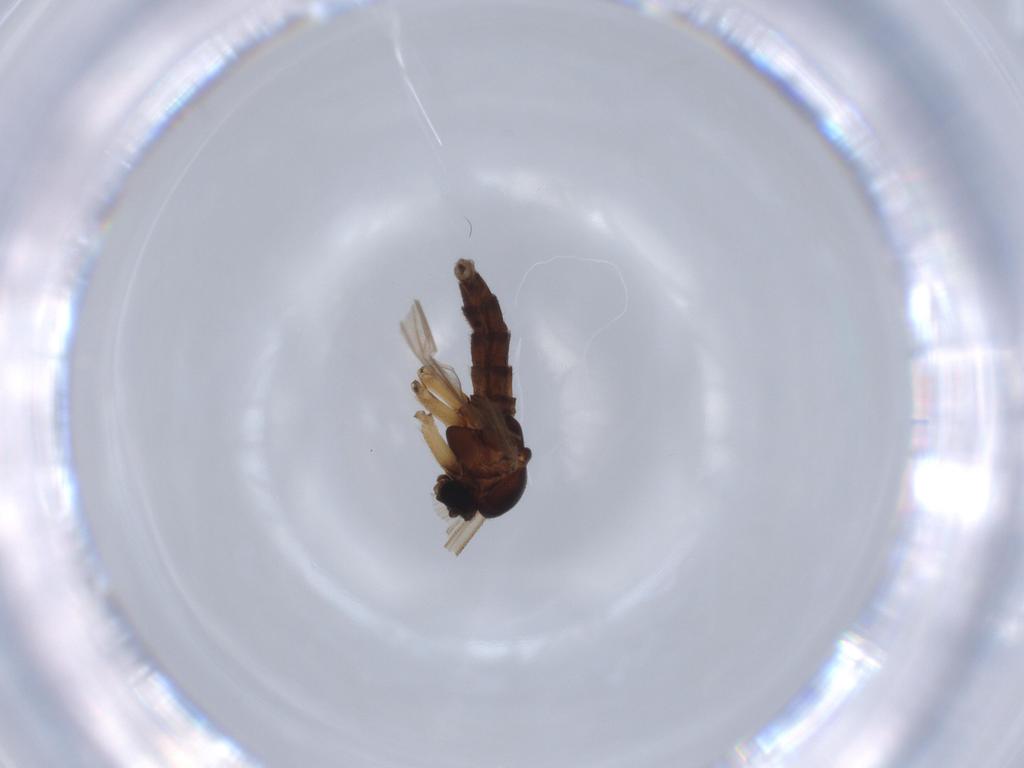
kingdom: Animalia
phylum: Arthropoda
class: Insecta
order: Diptera
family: Sciaridae
